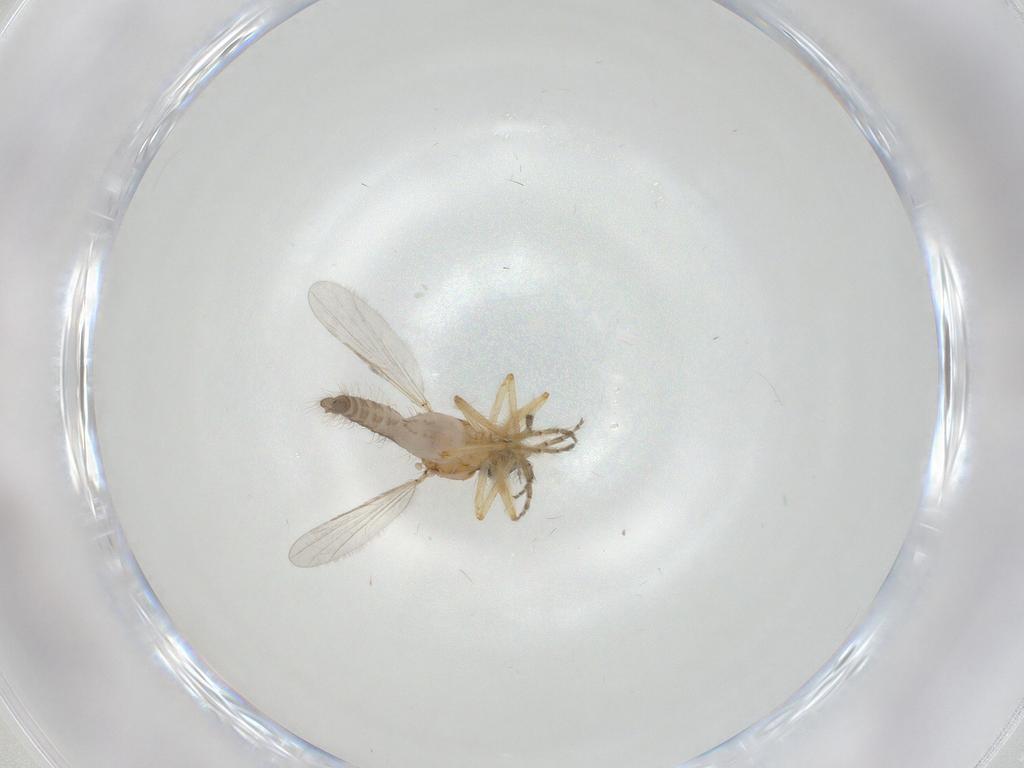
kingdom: Animalia
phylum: Arthropoda
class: Insecta
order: Diptera
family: Ceratopogonidae
